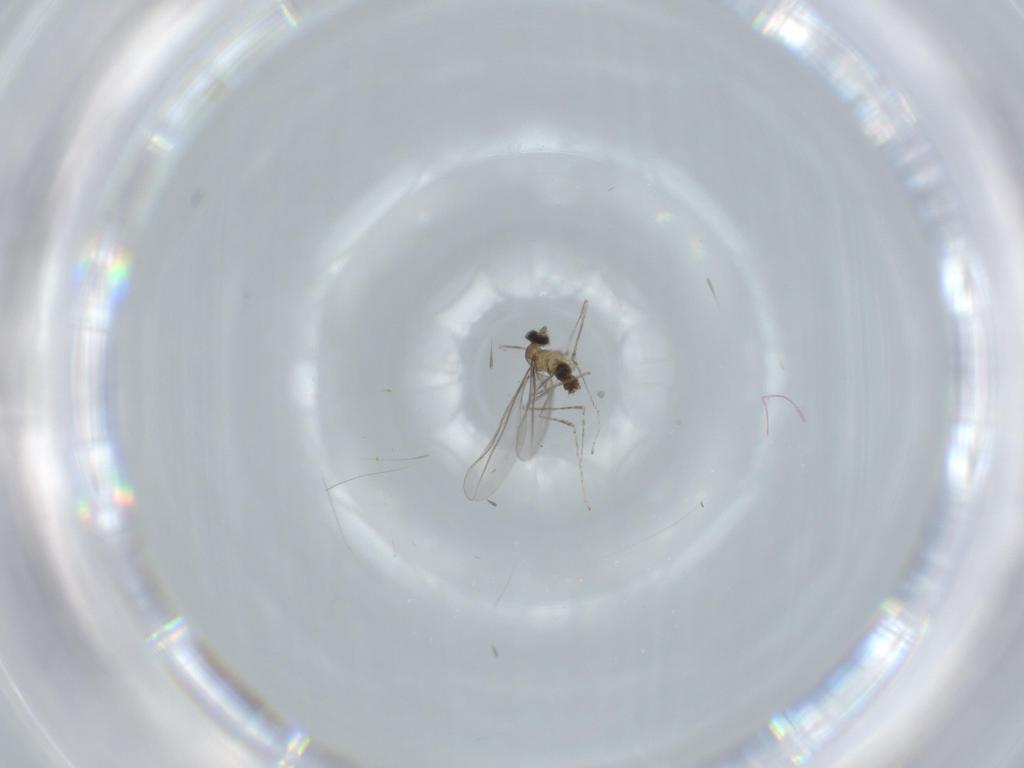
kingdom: Animalia
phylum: Arthropoda
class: Insecta
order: Diptera
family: Cecidomyiidae
